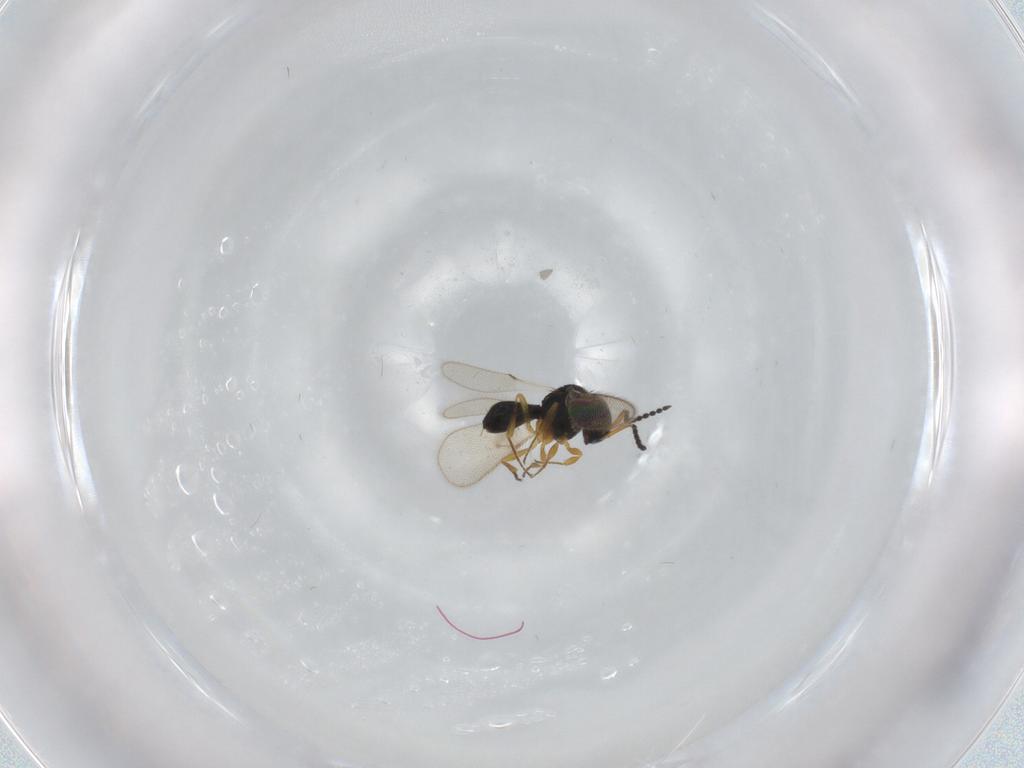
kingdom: Animalia
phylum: Arthropoda
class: Insecta
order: Hymenoptera
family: Scelionidae
